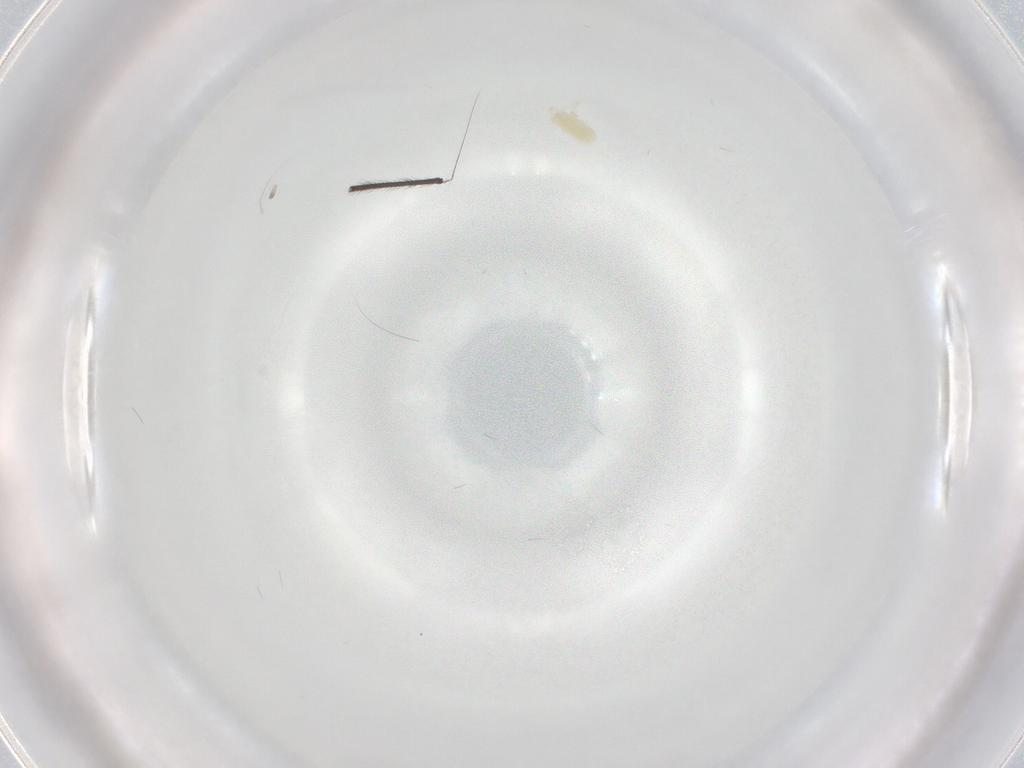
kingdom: Animalia
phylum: Arthropoda
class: Arachnida
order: Trombidiformes
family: Eupodidae
